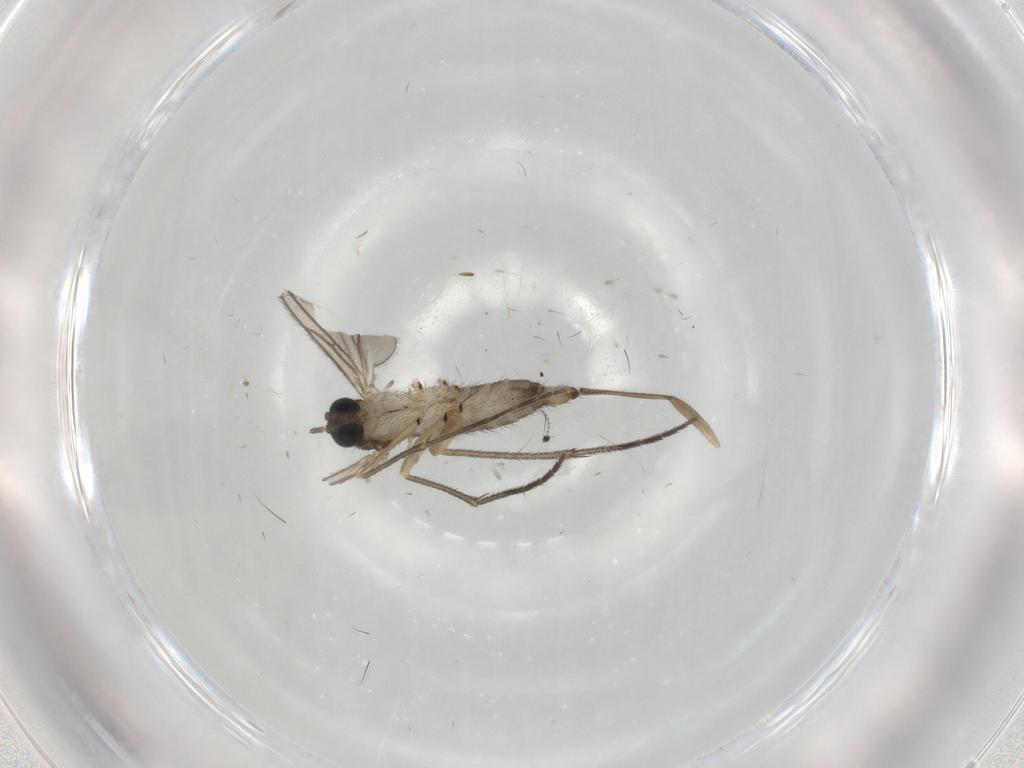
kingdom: Animalia
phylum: Arthropoda
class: Insecta
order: Diptera
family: Sciaridae
